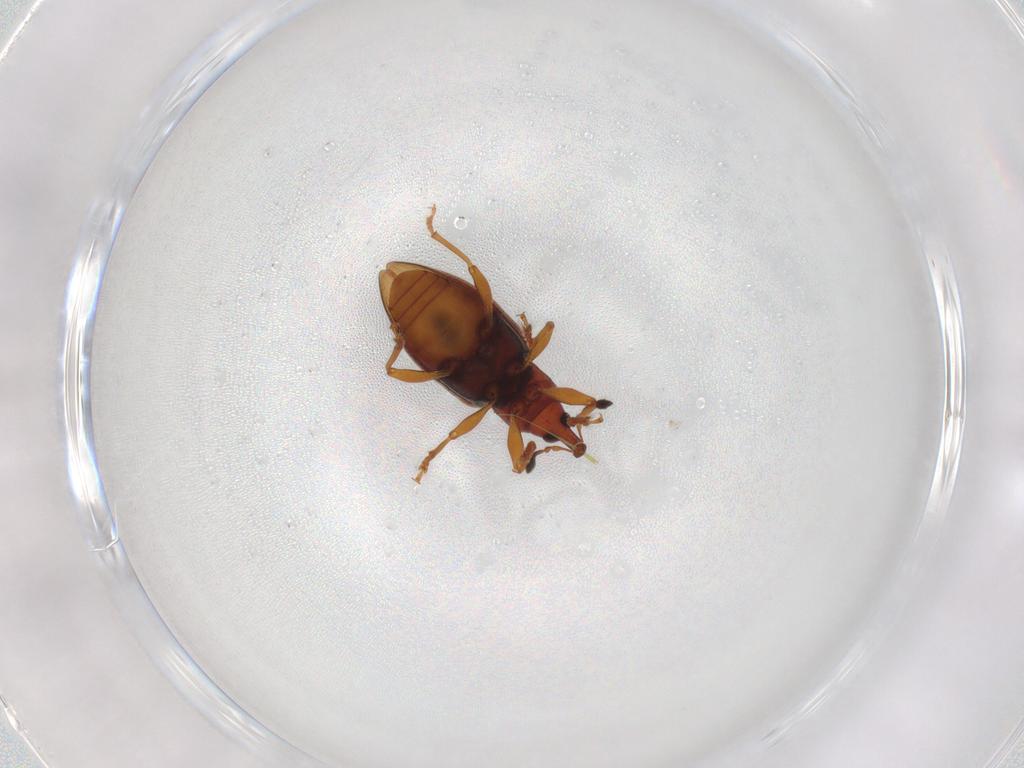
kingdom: Animalia
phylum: Arthropoda
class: Insecta
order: Coleoptera
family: Curculionidae
